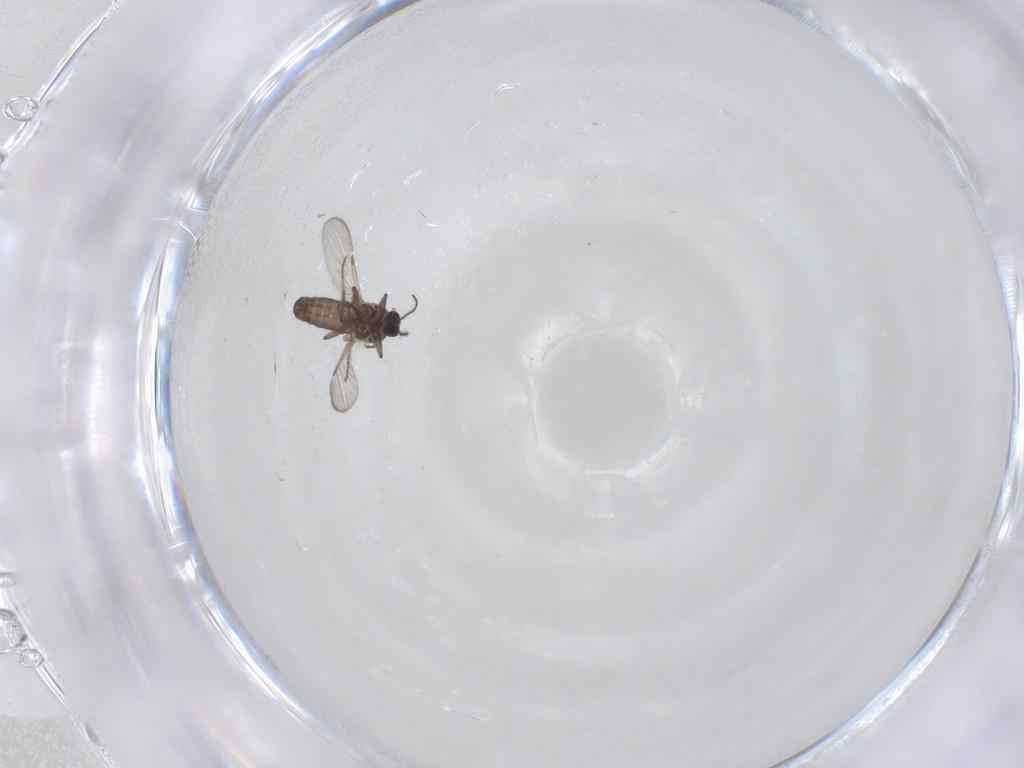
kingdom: Animalia
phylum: Arthropoda
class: Insecta
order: Diptera
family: Ceratopogonidae
